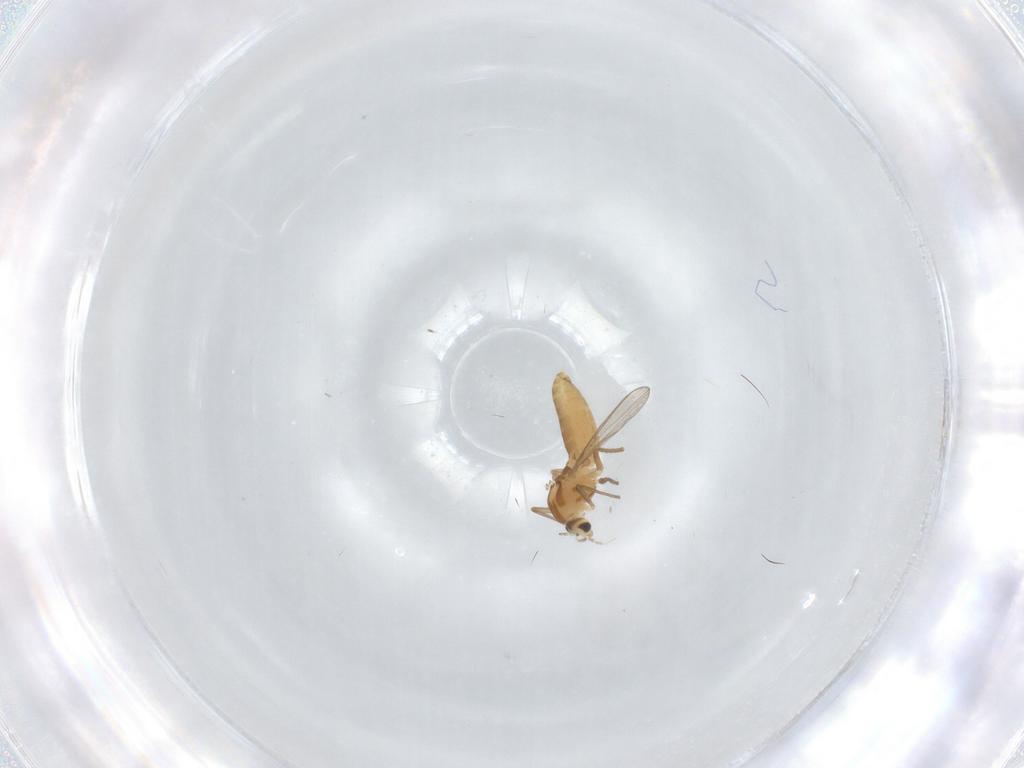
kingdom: Animalia
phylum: Arthropoda
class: Insecta
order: Diptera
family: Chironomidae
